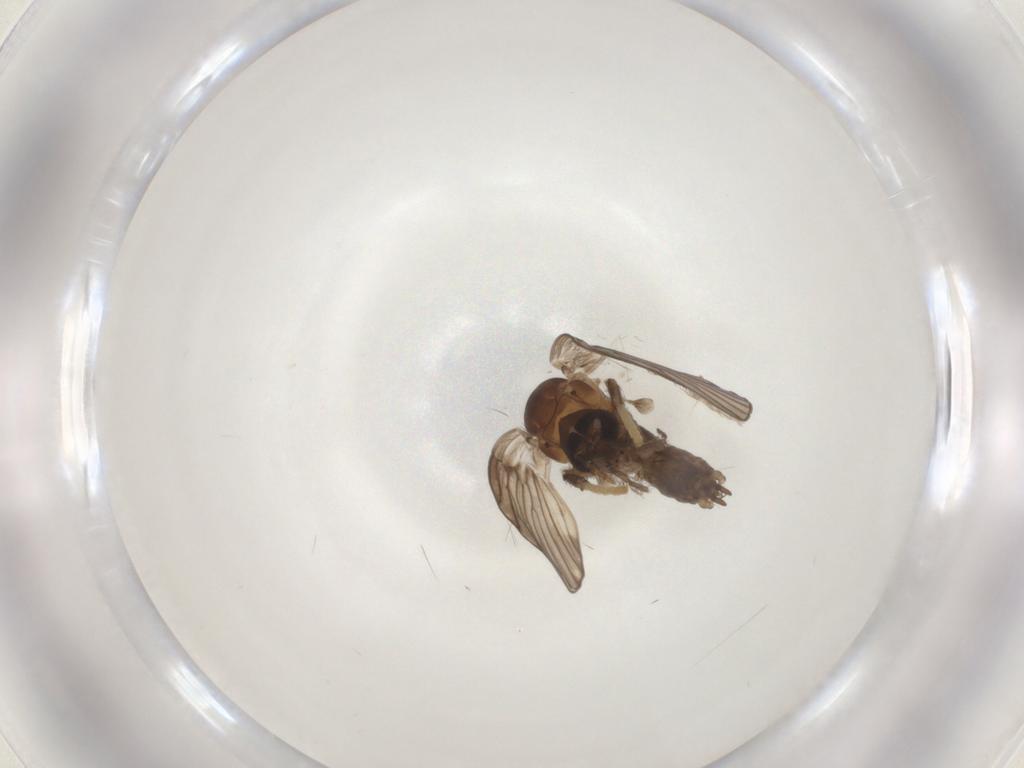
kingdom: Animalia
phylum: Arthropoda
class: Insecta
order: Diptera
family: Psychodidae
